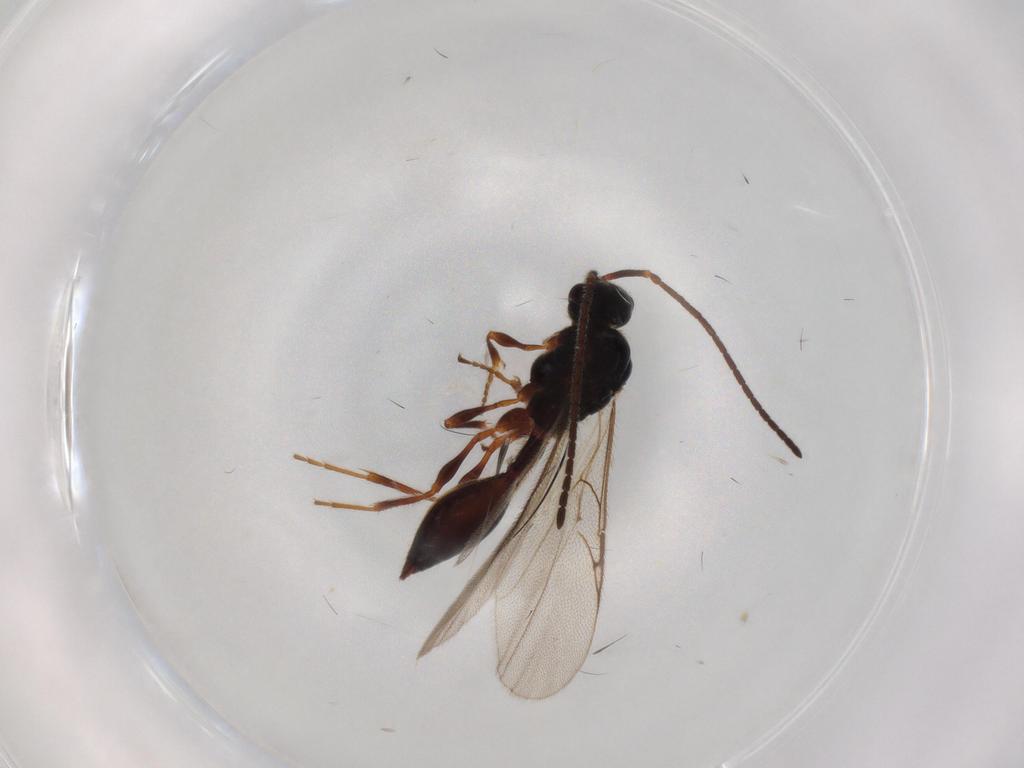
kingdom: Animalia
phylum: Arthropoda
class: Insecta
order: Hymenoptera
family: Diapriidae
